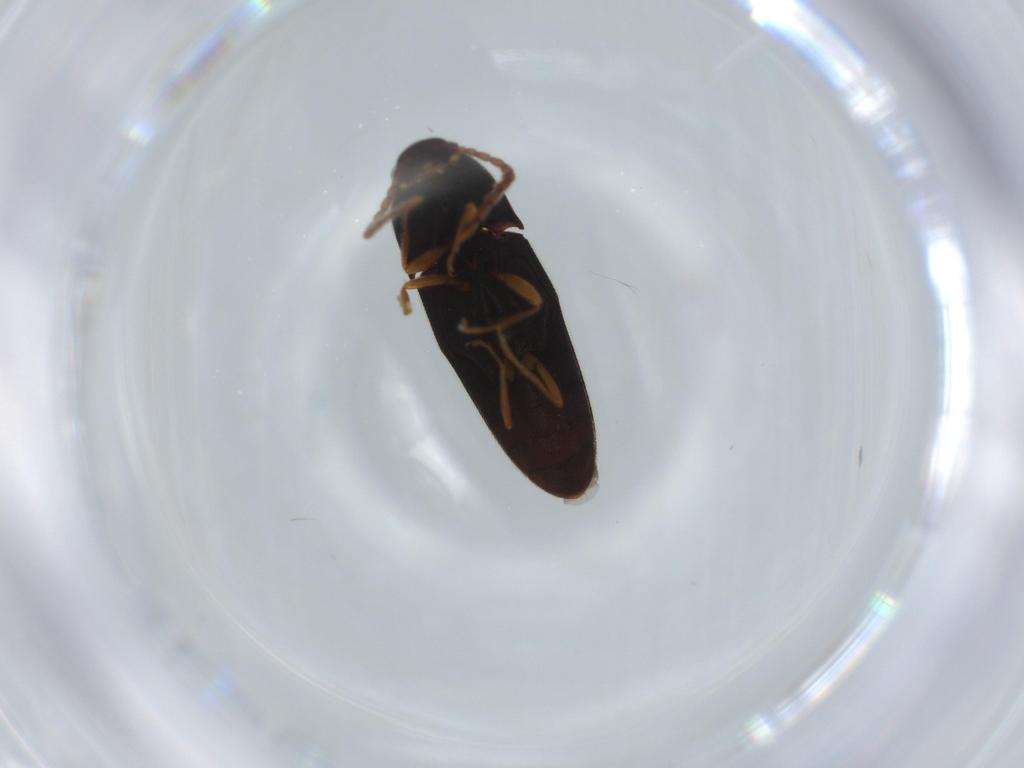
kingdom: Animalia
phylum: Arthropoda
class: Insecta
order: Coleoptera
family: Elateridae
